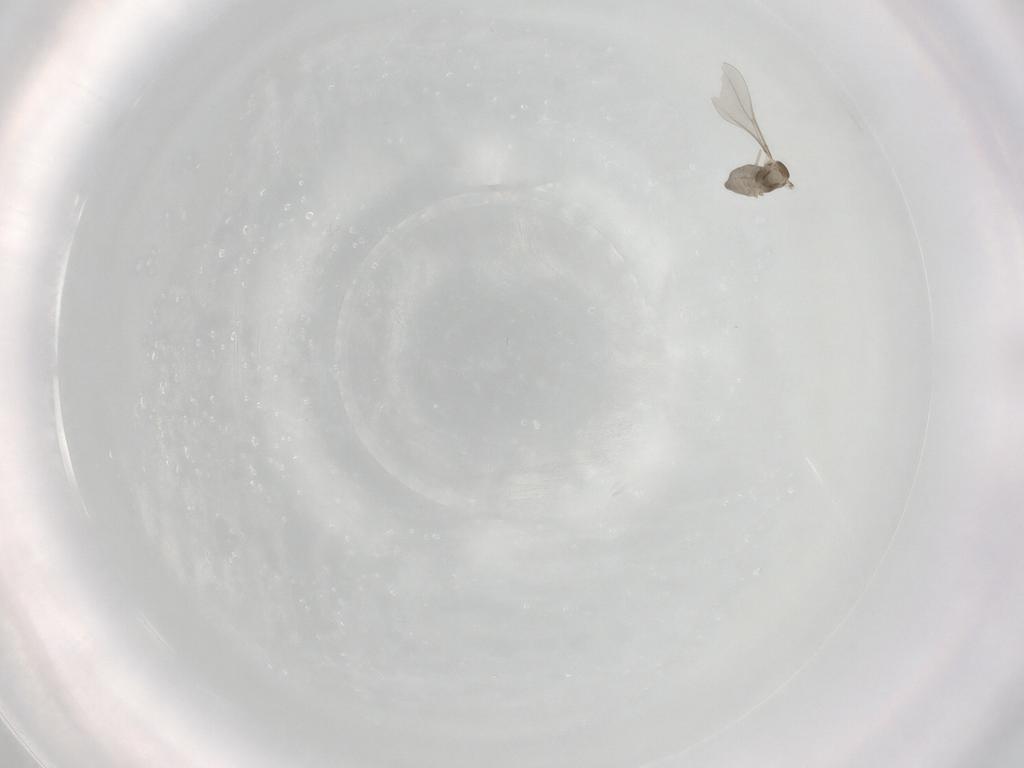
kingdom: Animalia
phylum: Arthropoda
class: Insecta
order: Diptera
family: Cecidomyiidae
